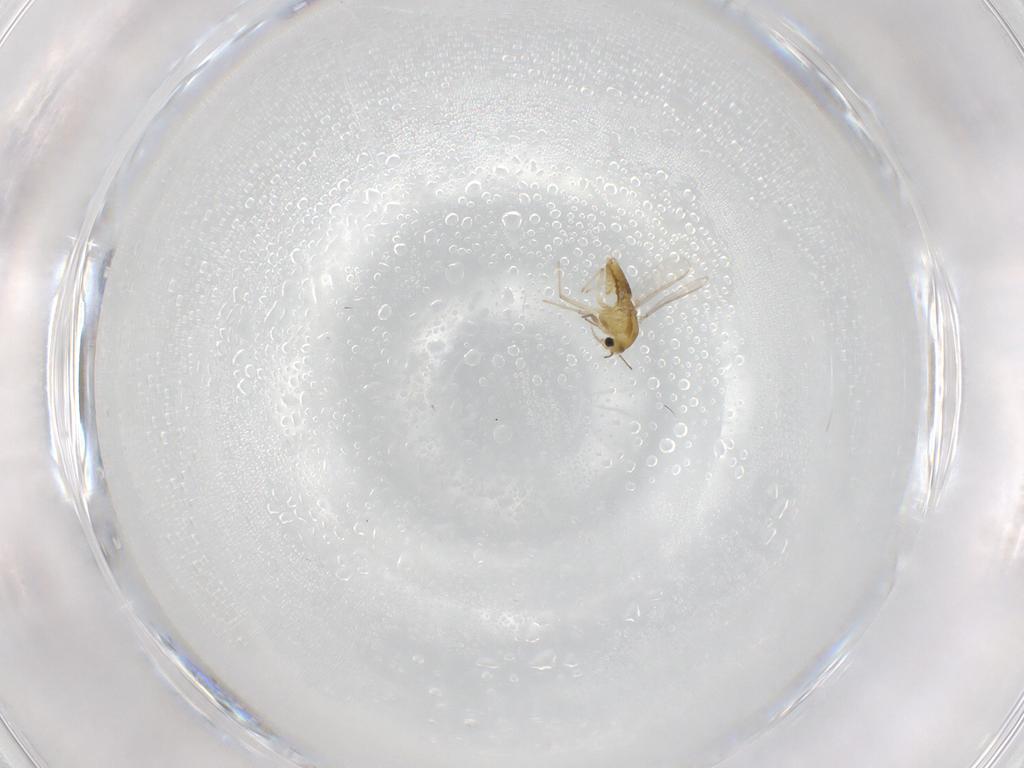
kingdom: Animalia
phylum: Arthropoda
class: Insecta
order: Diptera
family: Chironomidae
